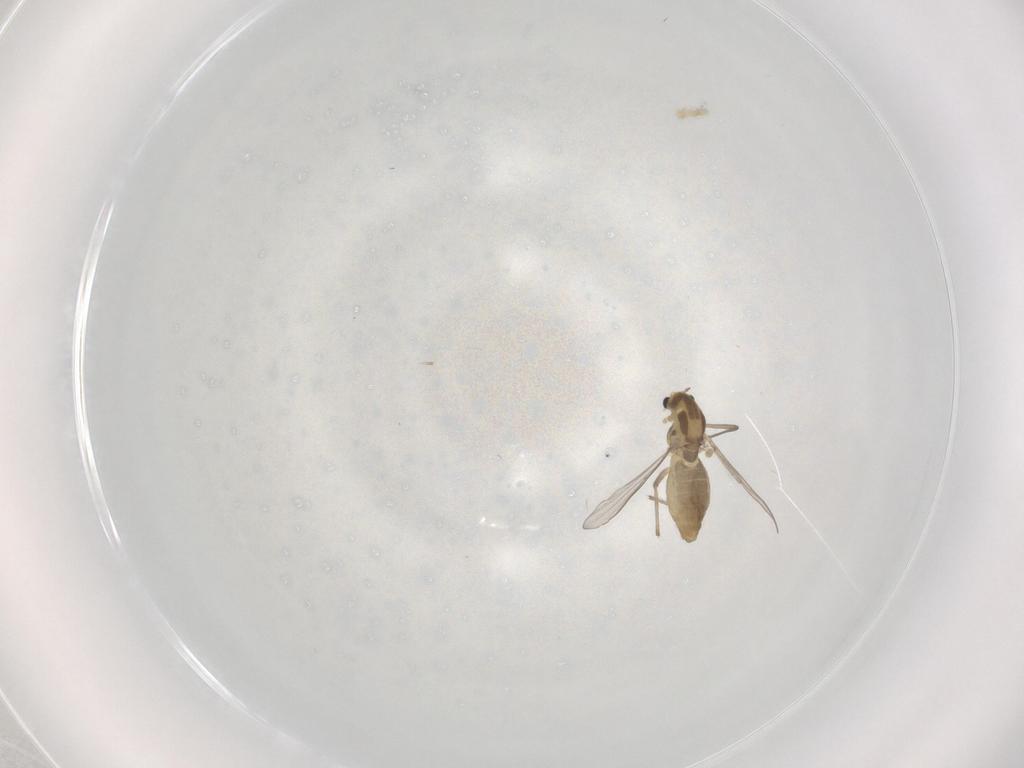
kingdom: Animalia
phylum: Arthropoda
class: Insecta
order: Diptera
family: Chironomidae
